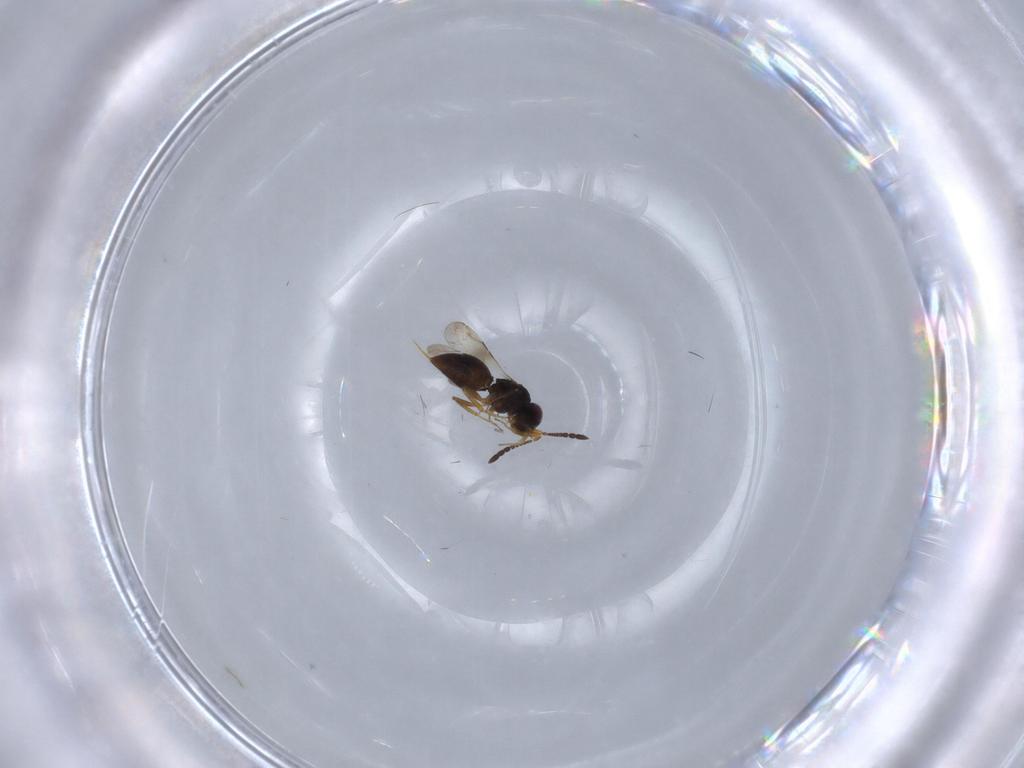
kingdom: Animalia
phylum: Arthropoda
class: Insecta
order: Hymenoptera
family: Ceraphronidae
